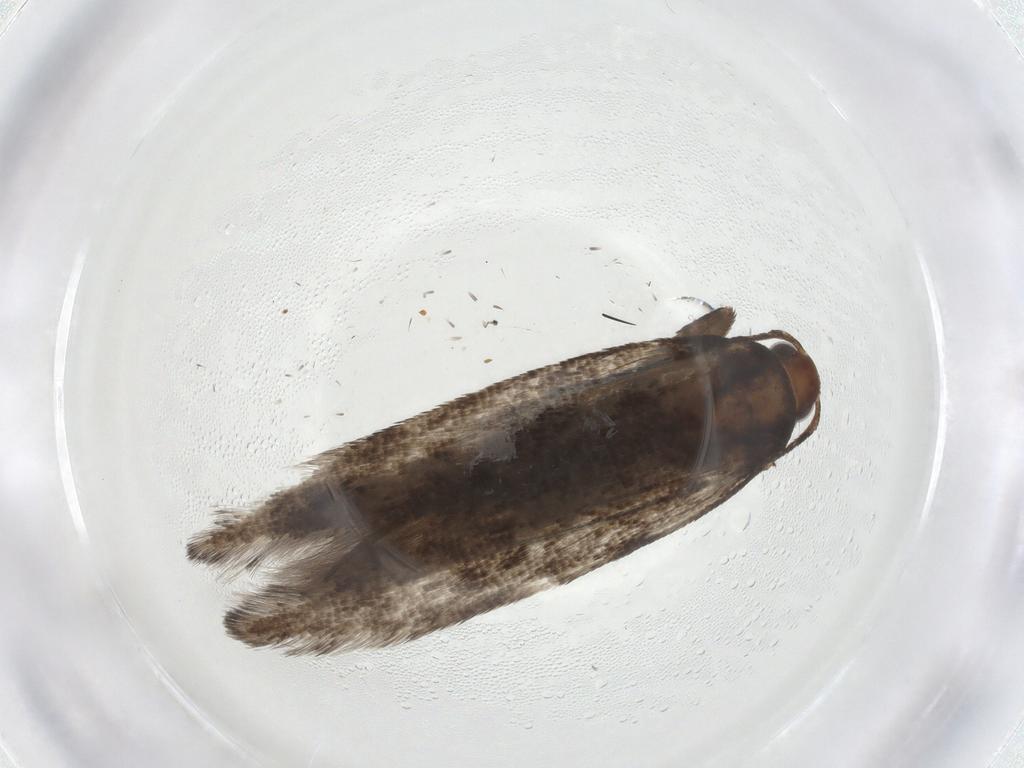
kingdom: Animalia
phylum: Arthropoda
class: Insecta
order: Lepidoptera
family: Gelechiidae
